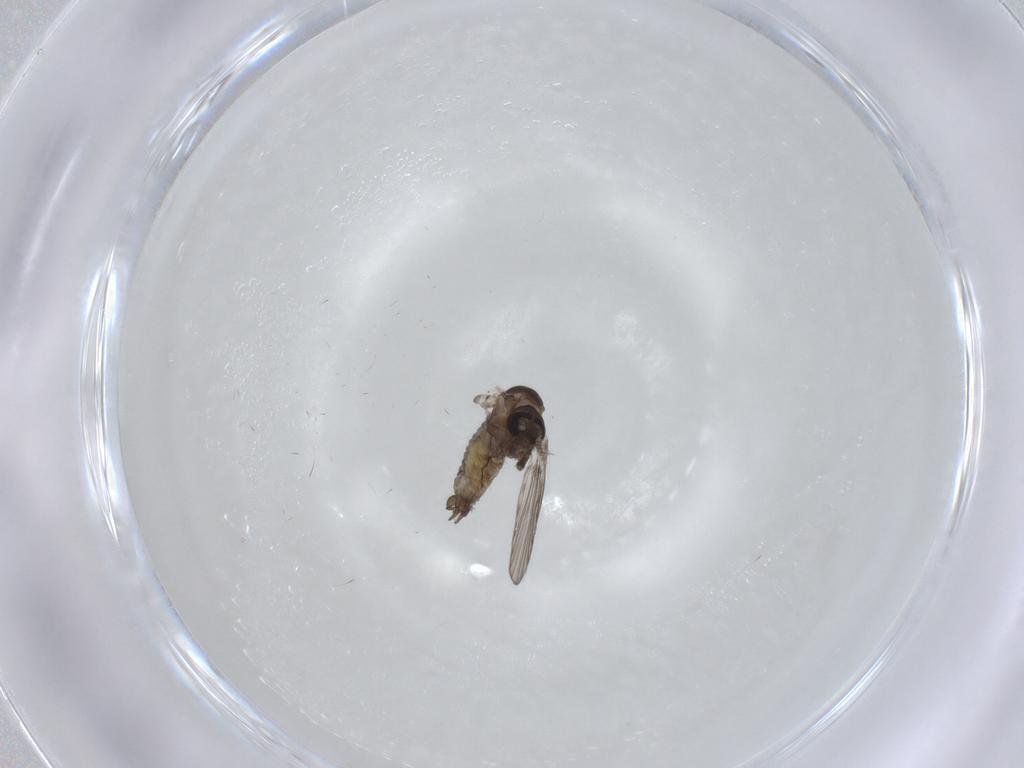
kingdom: Animalia
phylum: Arthropoda
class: Insecta
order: Diptera
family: Psychodidae
